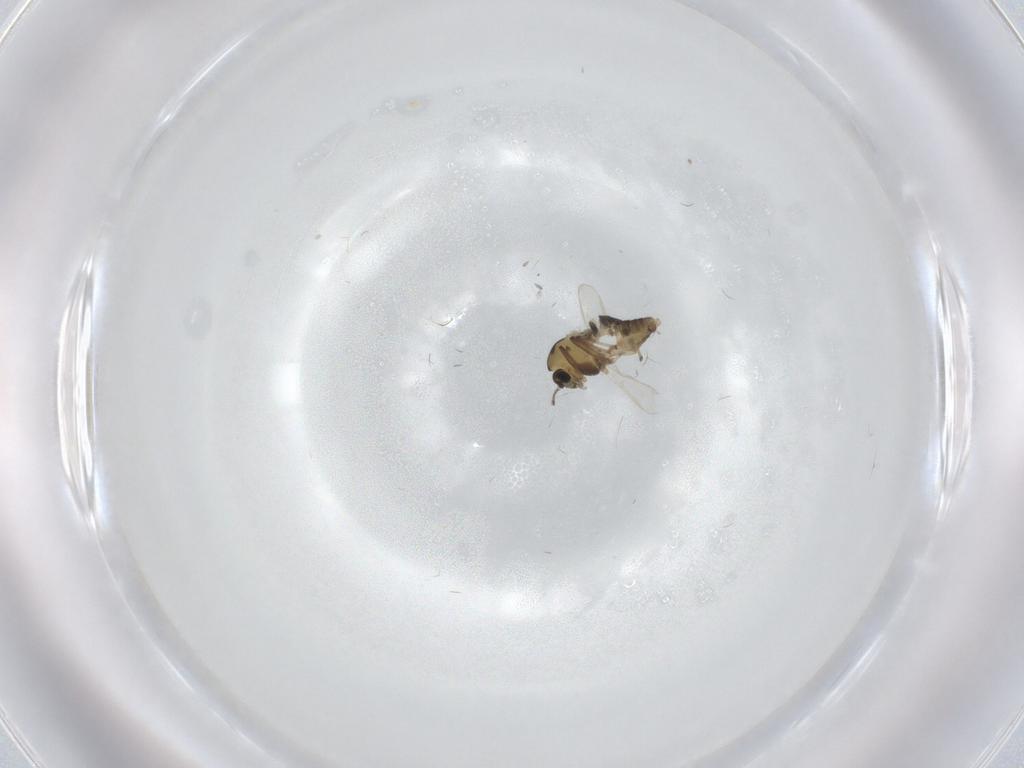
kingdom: Animalia
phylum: Arthropoda
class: Insecta
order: Diptera
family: Chironomidae
